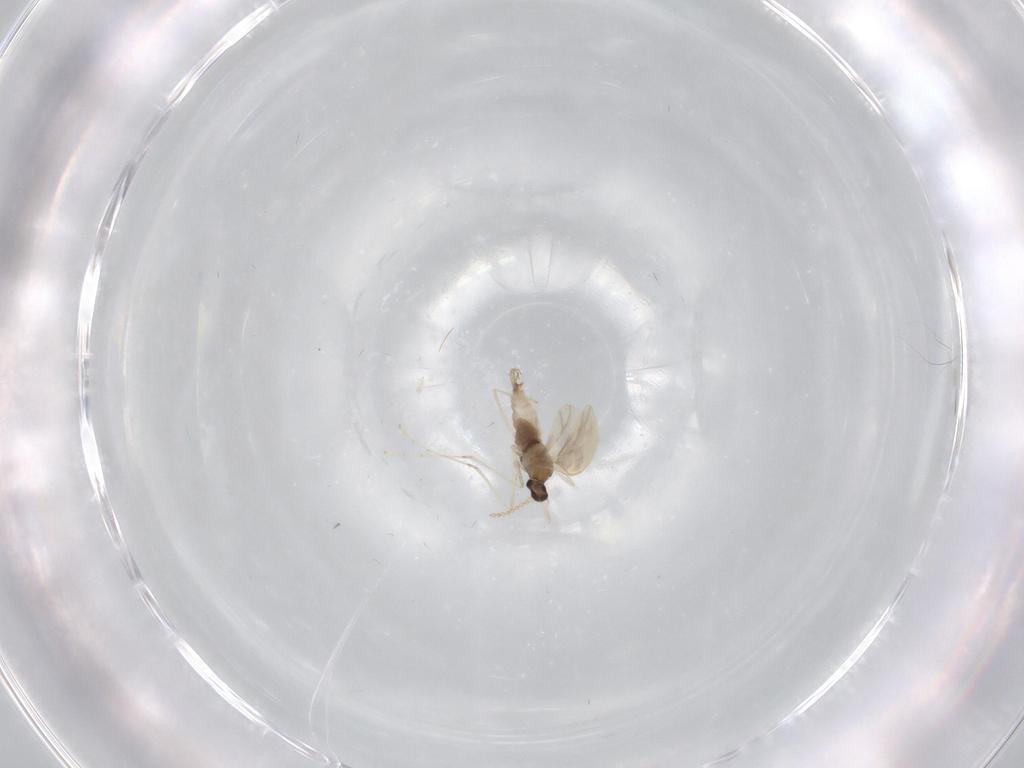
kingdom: Animalia
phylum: Arthropoda
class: Insecta
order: Diptera
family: Cecidomyiidae
